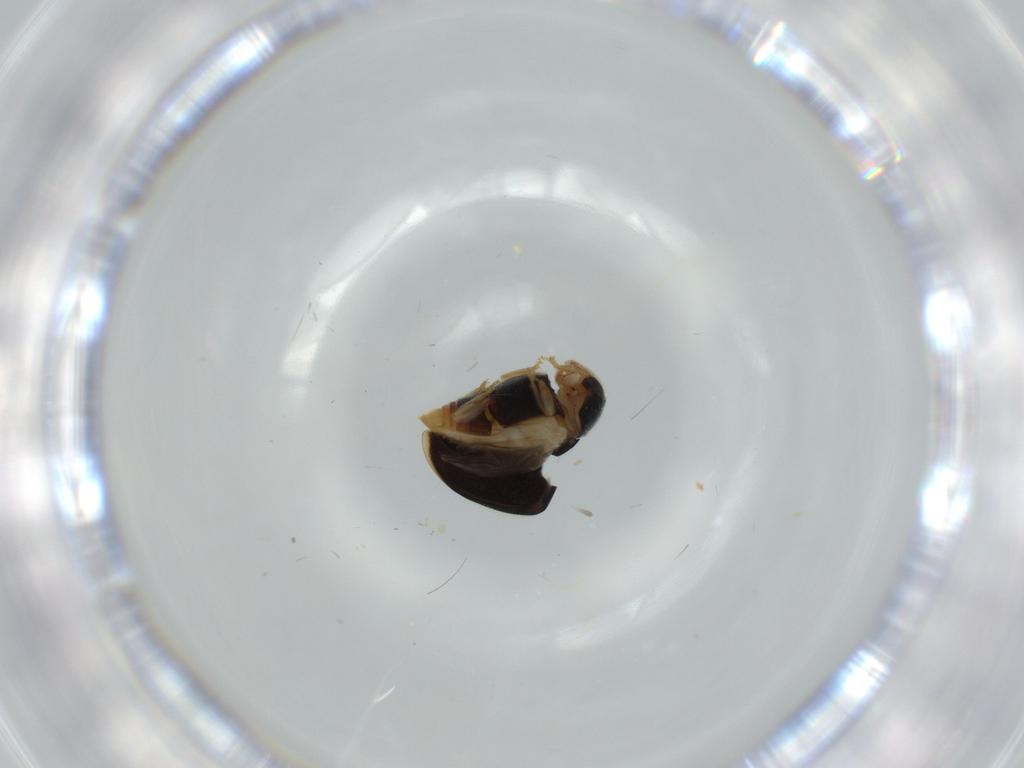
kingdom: Animalia
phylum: Arthropoda
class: Insecta
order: Coleoptera
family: Coccinellidae
